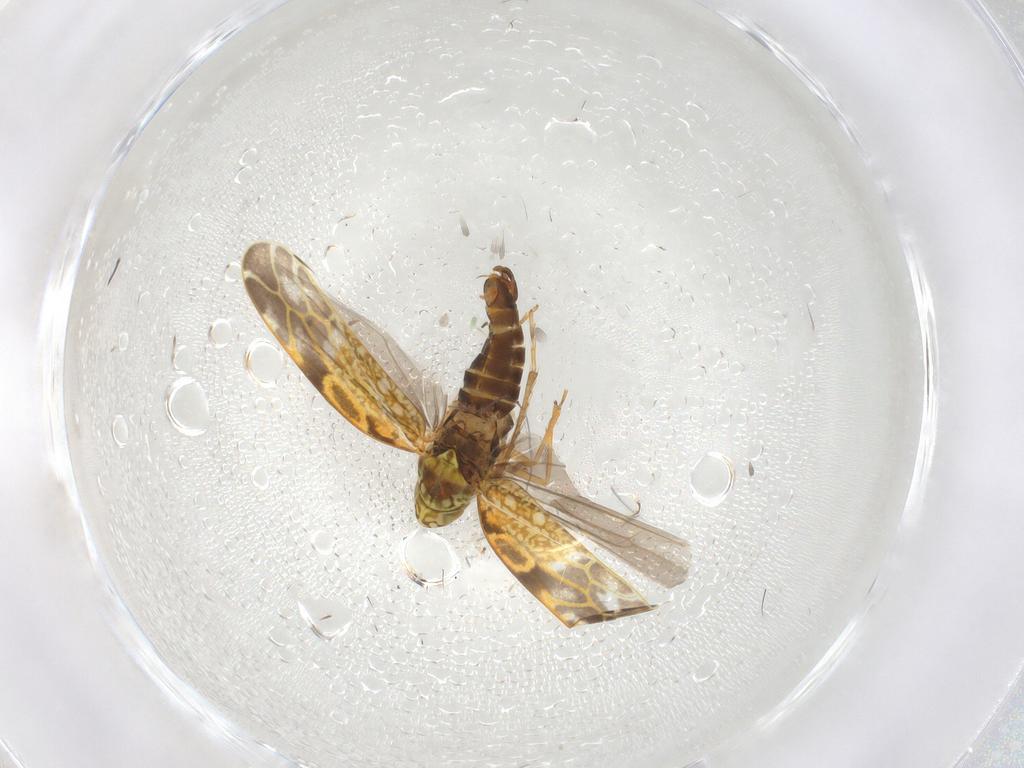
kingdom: Animalia
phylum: Arthropoda
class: Insecta
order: Hemiptera
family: Cicadellidae
